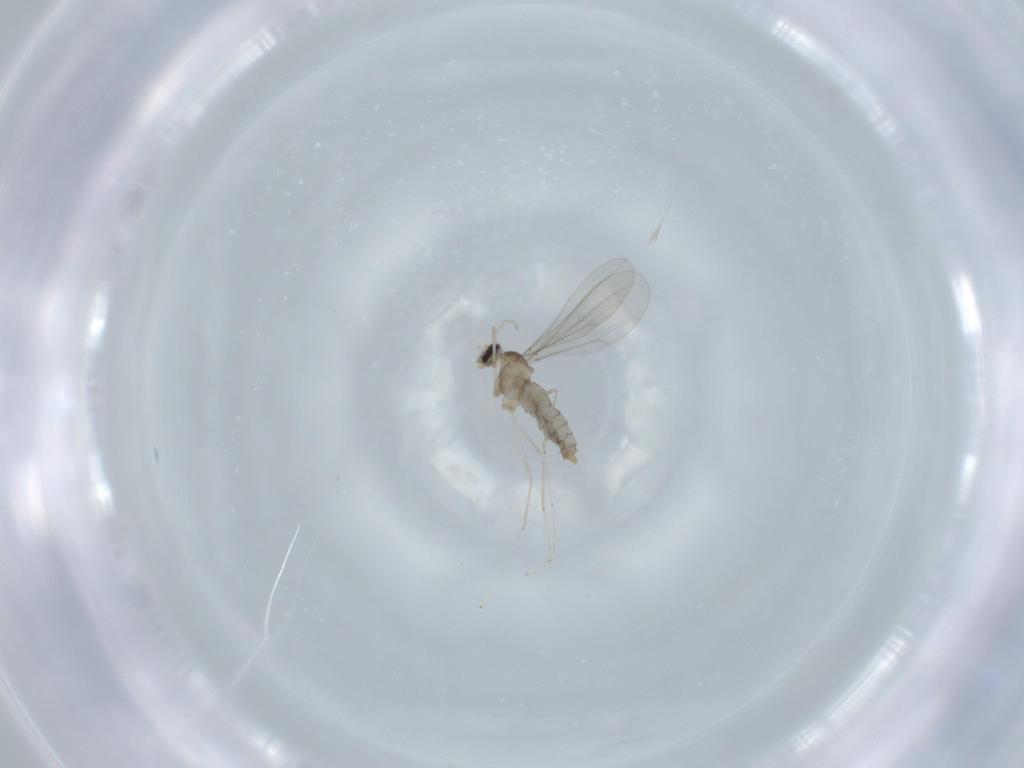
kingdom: Animalia
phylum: Arthropoda
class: Insecta
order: Diptera
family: Cecidomyiidae
